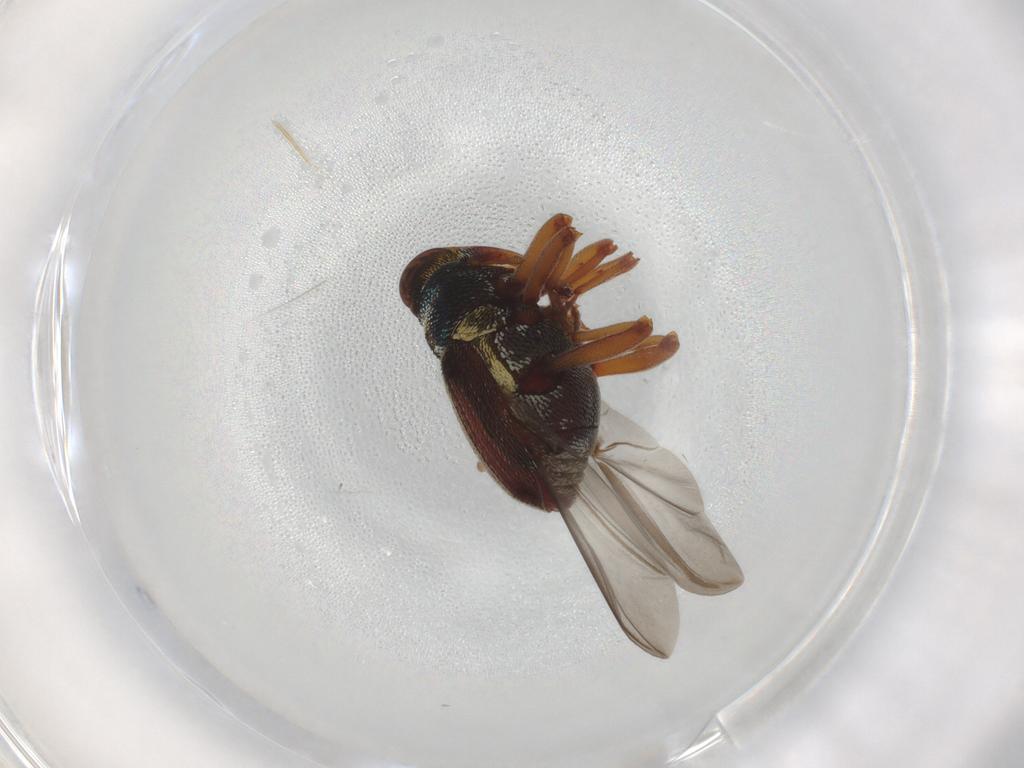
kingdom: Animalia
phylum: Arthropoda
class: Insecta
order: Coleoptera
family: Curculionidae
